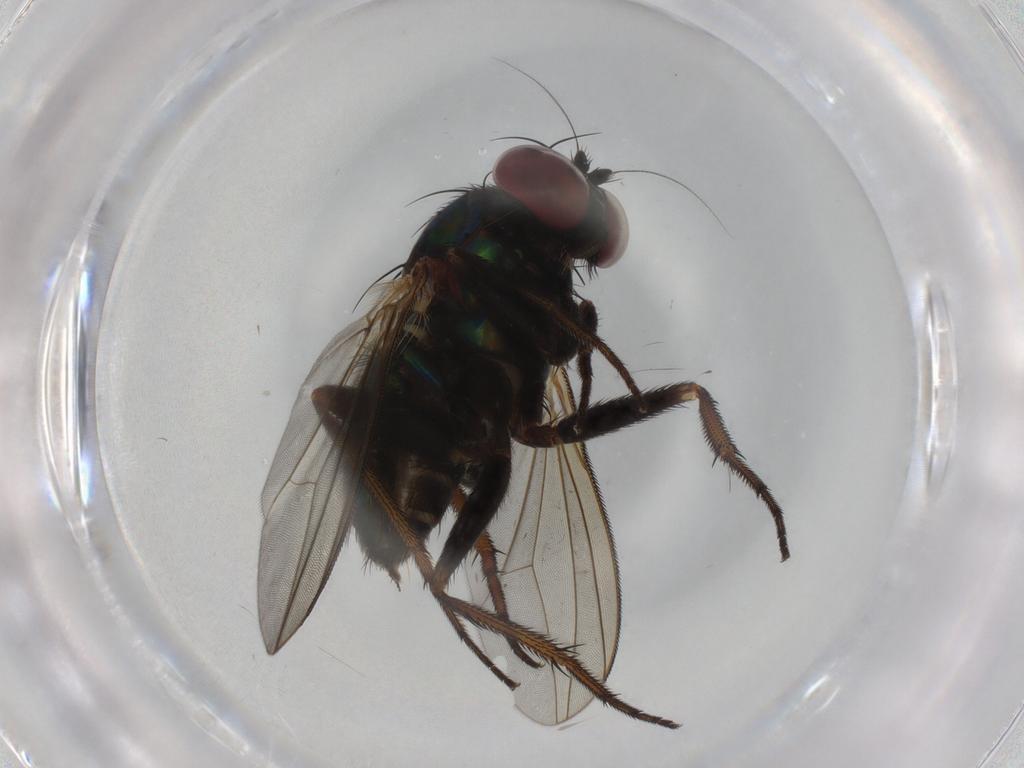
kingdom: Animalia
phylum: Arthropoda
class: Insecta
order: Diptera
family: Dolichopodidae
